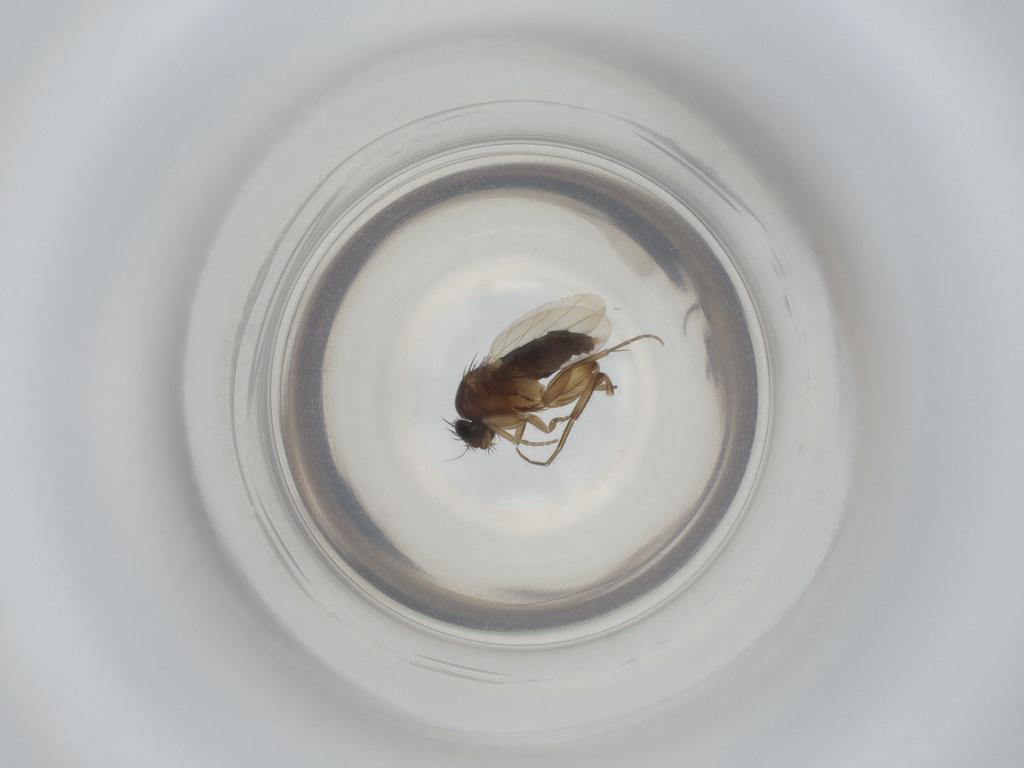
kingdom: Animalia
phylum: Arthropoda
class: Insecta
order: Diptera
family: Phoridae
